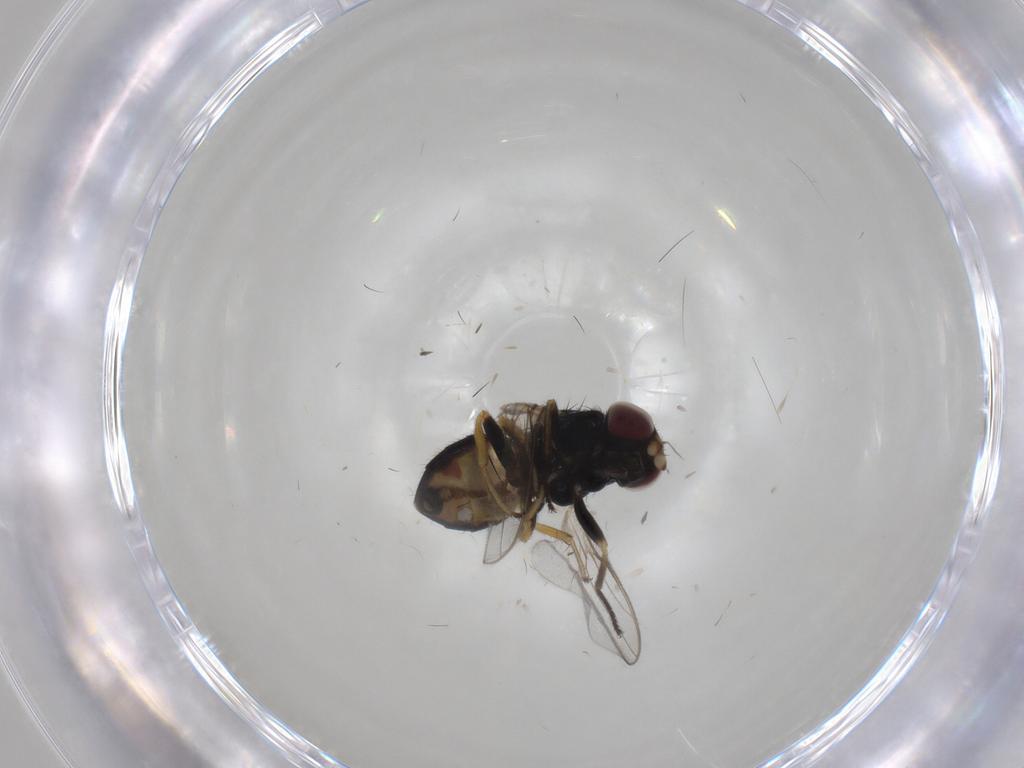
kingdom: Animalia
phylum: Arthropoda
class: Insecta
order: Diptera
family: Chloropidae
